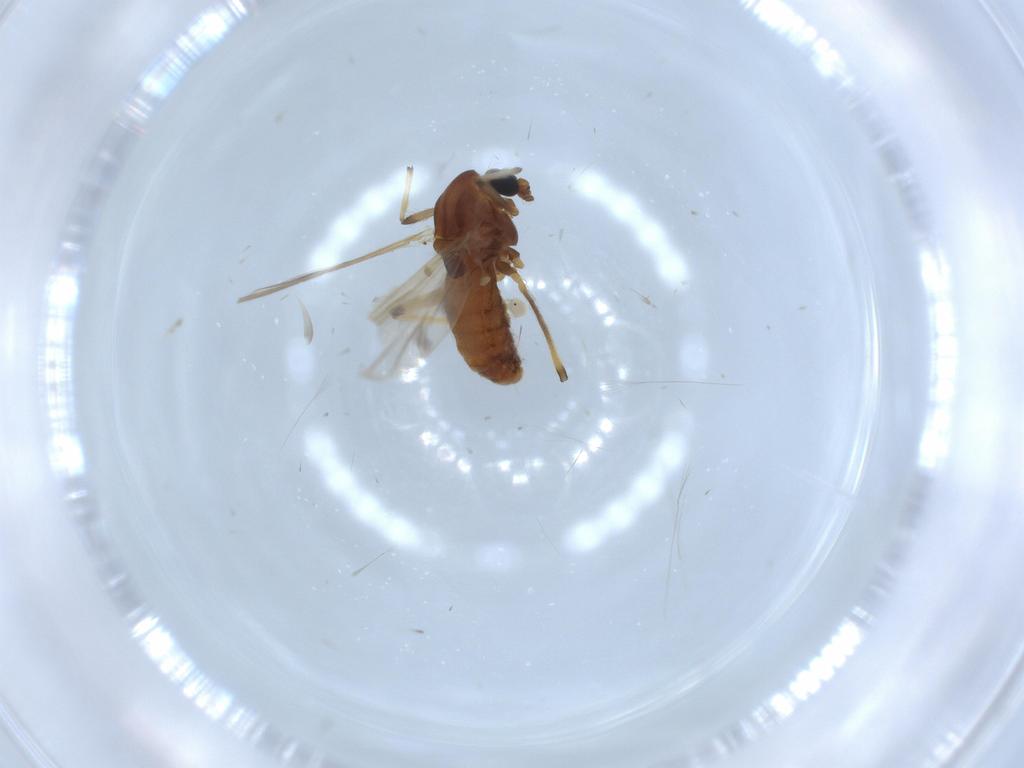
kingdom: Animalia
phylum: Arthropoda
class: Insecta
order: Diptera
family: Chironomidae
